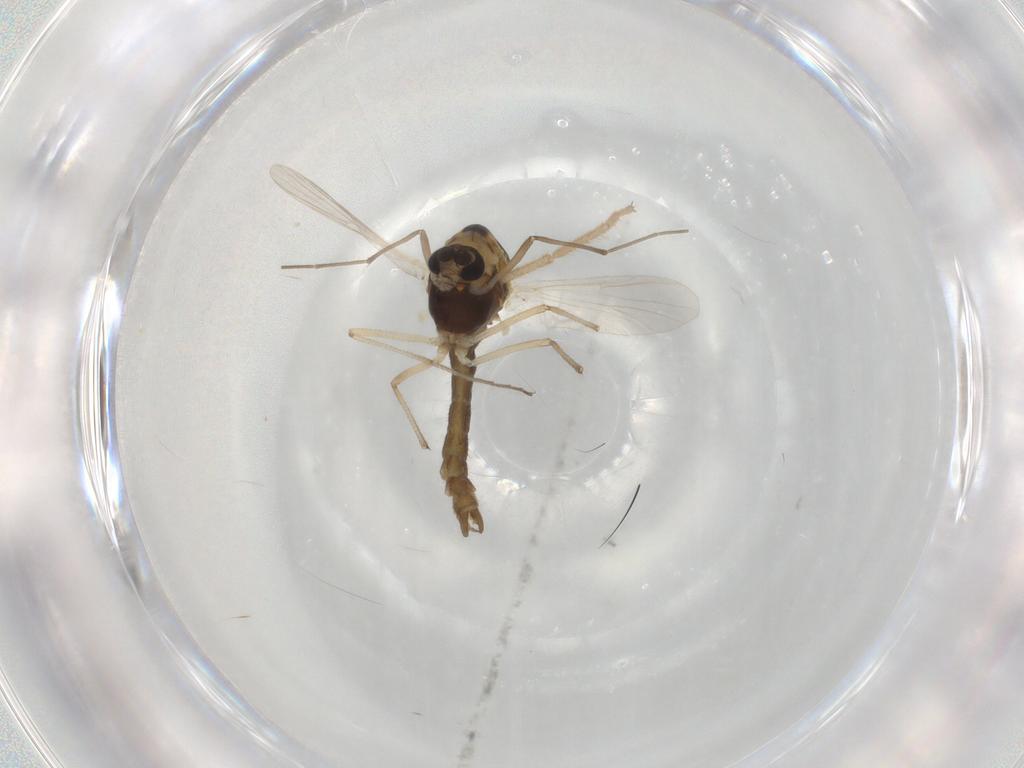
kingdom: Animalia
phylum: Arthropoda
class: Insecta
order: Diptera
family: Chironomidae
